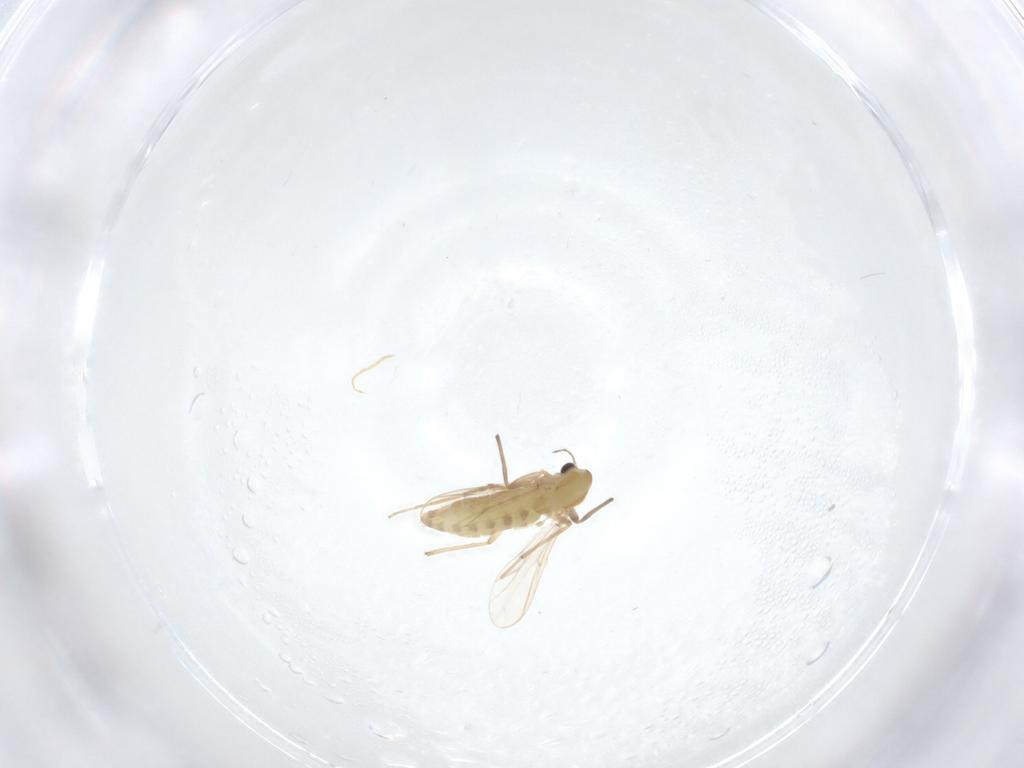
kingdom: Animalia
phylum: Arthropoda
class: Insecta
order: Diptera
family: Chironomidae
